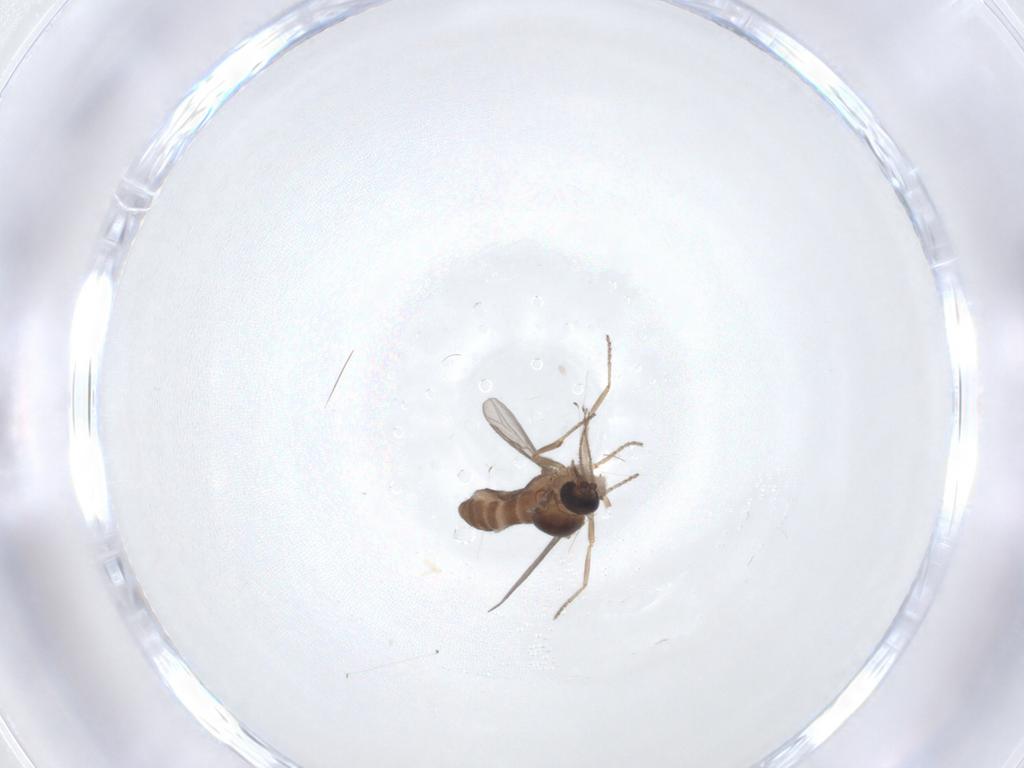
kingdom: Animalia
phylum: Arthropoda
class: Insecta
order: Diptera
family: Ceratopogonidae
